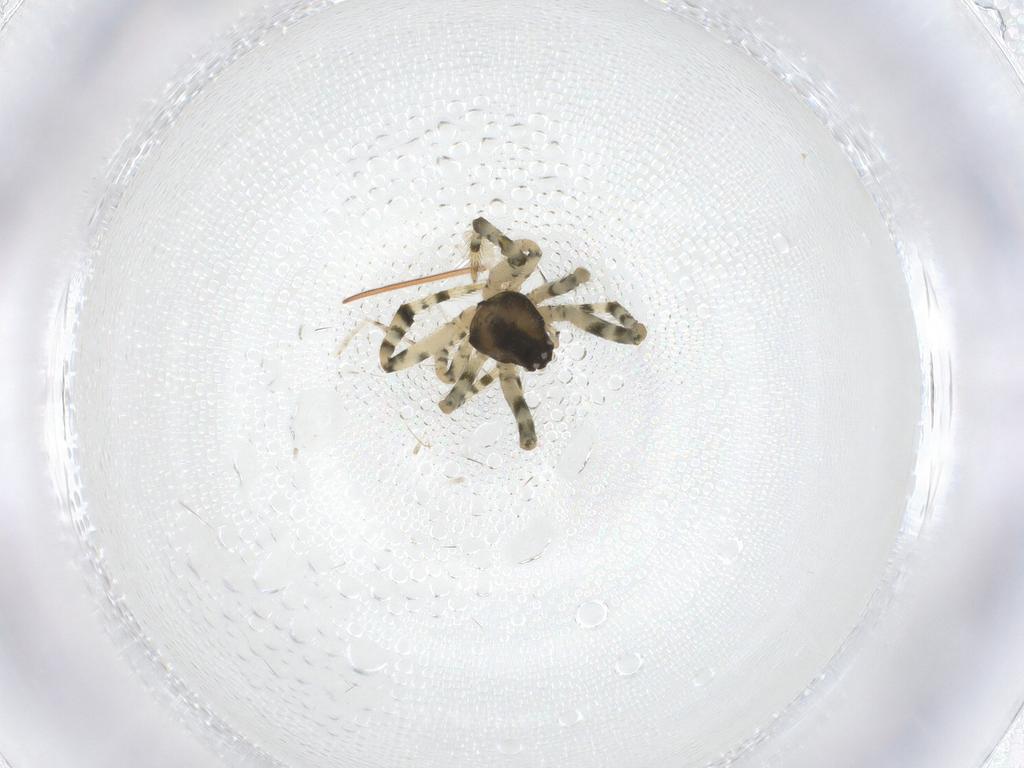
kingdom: Animalia
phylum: Arthropoda
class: Arachnida
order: Araneae
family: Theridiidae
